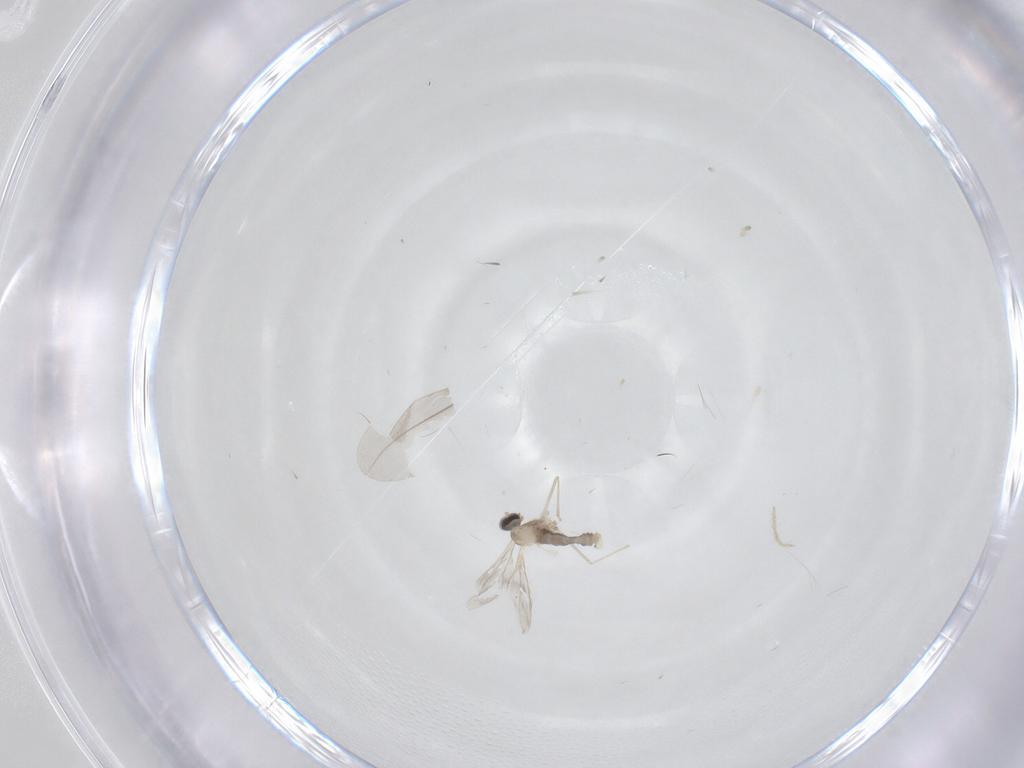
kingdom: Animalia
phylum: Arthropoda
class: Insecta
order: Diptera
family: Cecidomyiidae
